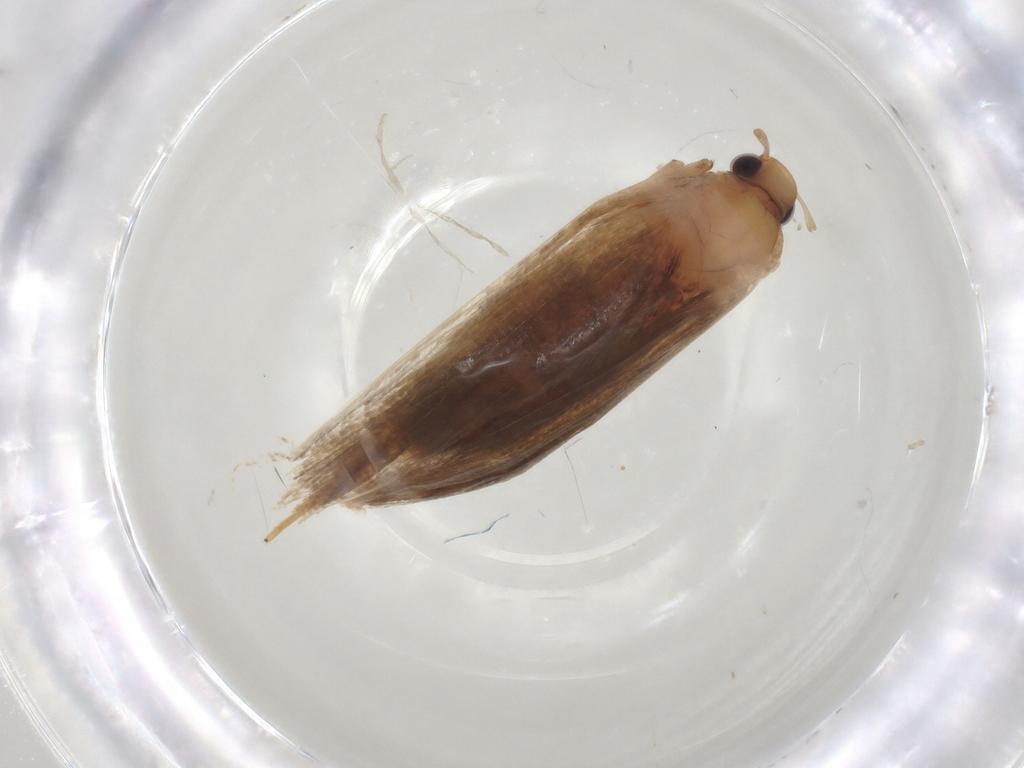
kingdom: Animalia
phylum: Arthropoda
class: Insecta
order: Lepidoptera
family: Lecithoceridae
